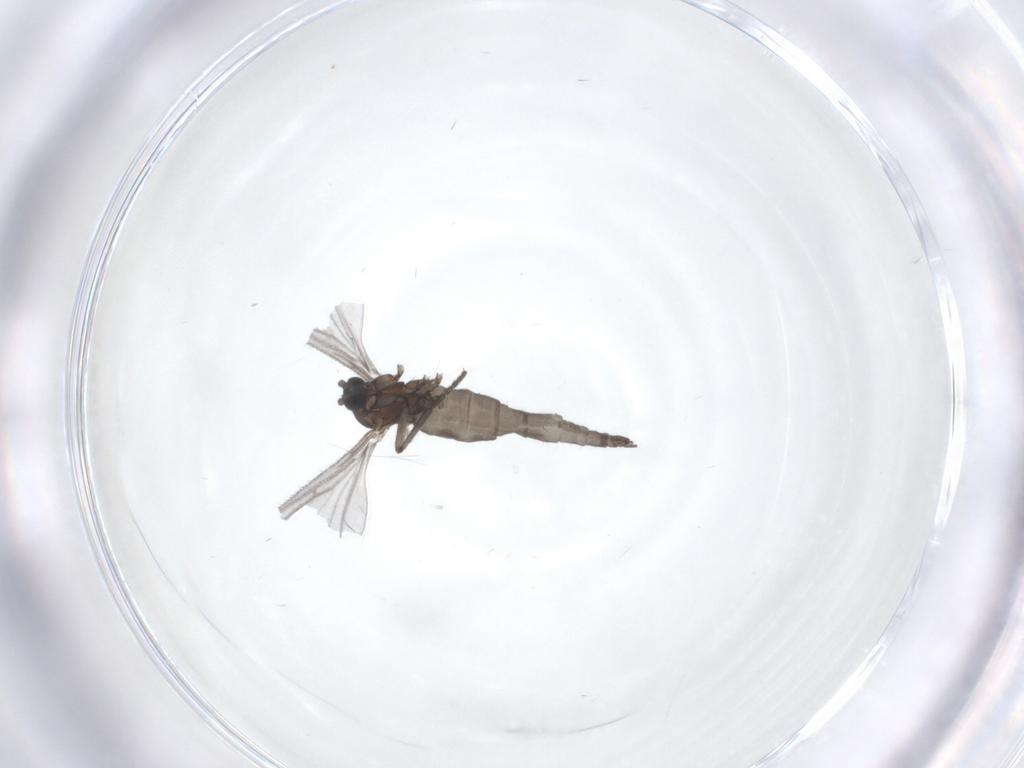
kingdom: Animalia
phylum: Arthropoda
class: Insecta
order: Diptera
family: Sciaridae
